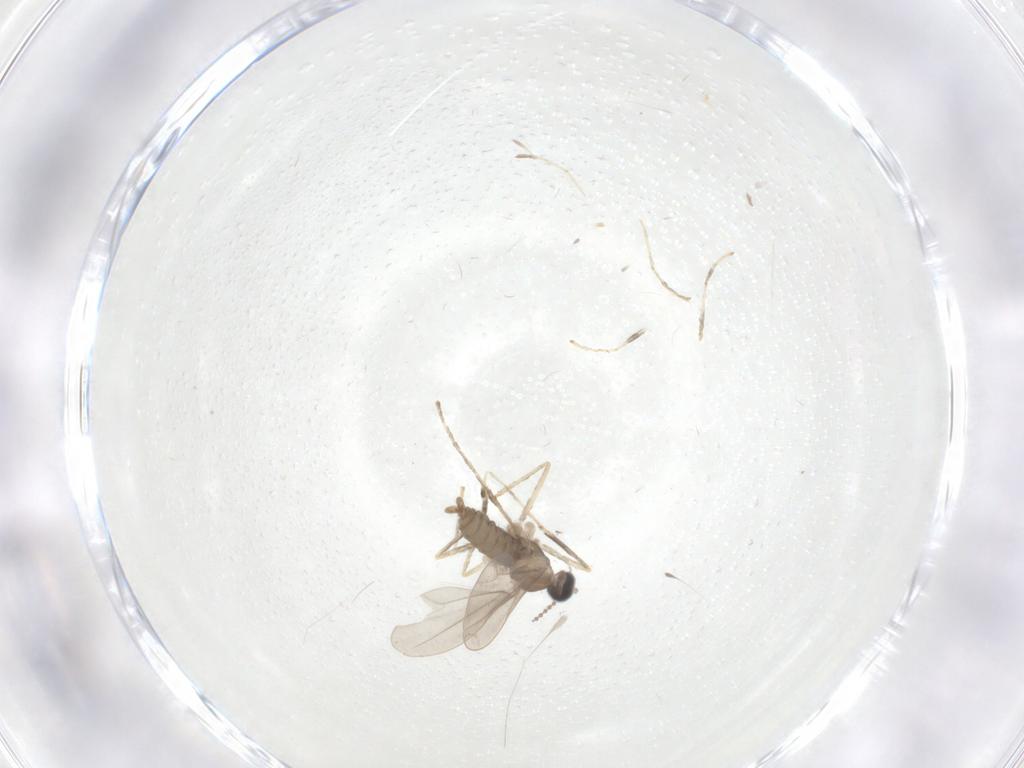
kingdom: Animalia
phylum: Arthropoda
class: Insecta
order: Diptera
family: Cecidomyiidae
